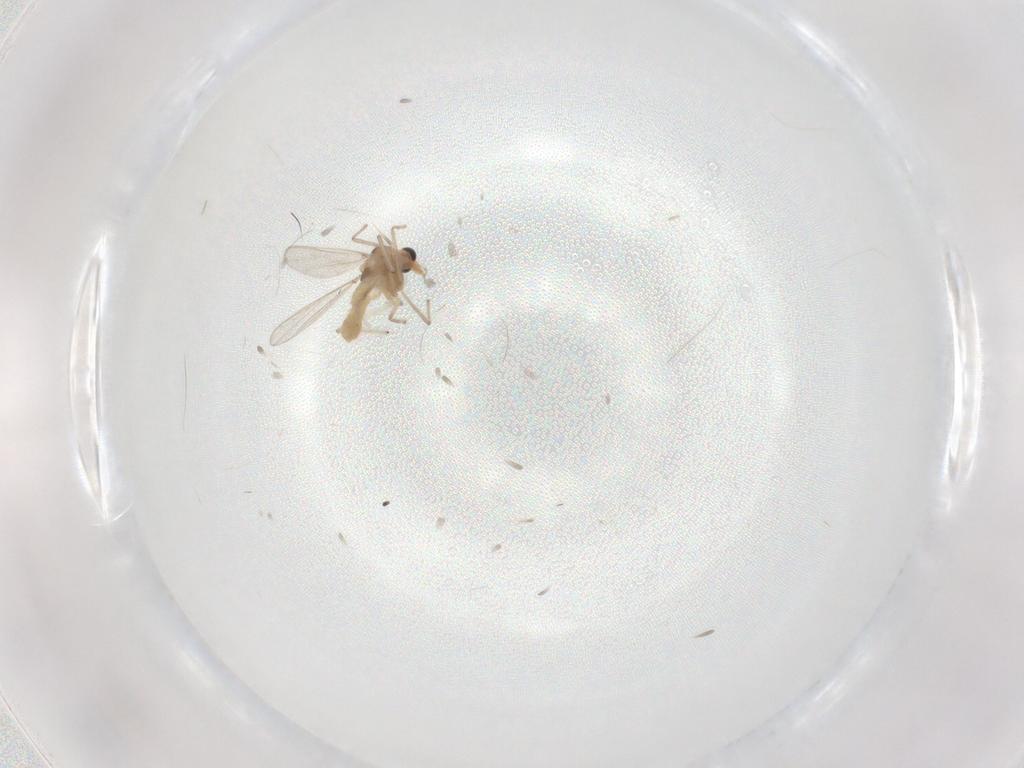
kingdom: Animalia
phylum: Arthropoda
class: Insecta
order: Diptera
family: Chironomidae
